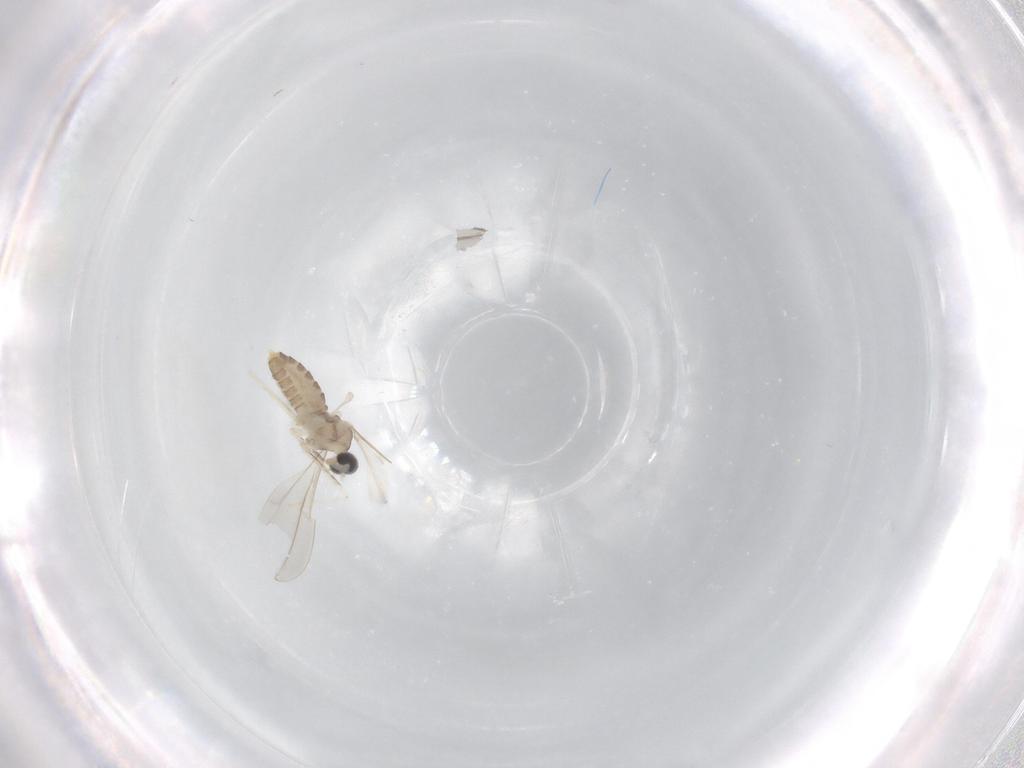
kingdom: Animalia
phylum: Arthropoda
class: Insecta
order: Diptera
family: Cecidomyiidae
